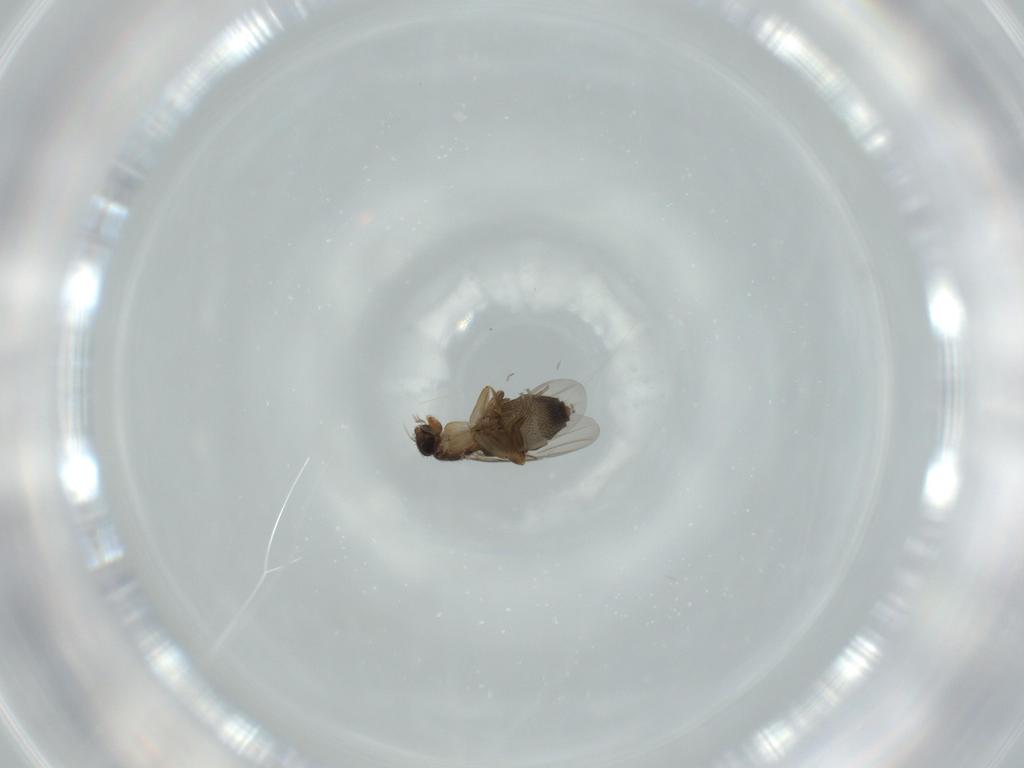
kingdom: Animalia
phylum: Arthropoda
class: Insecta
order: Diptera
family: Phoridae
